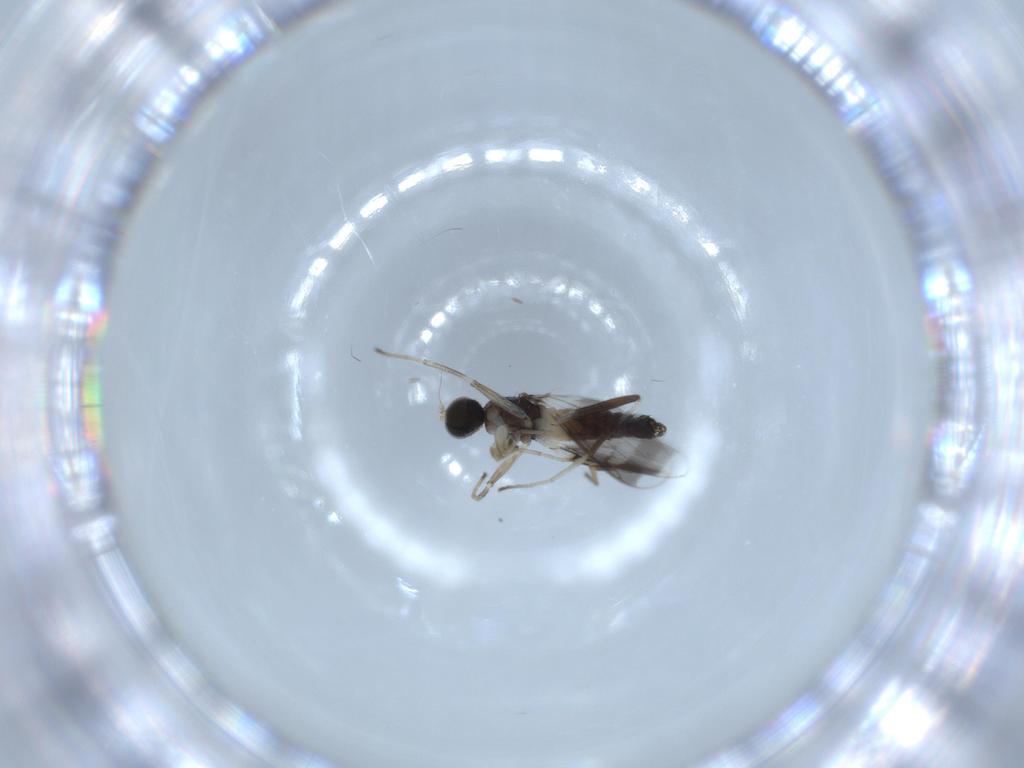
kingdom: Animalia
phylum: Arthropoda
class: Insecta
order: Diptera
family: Hybotidae
